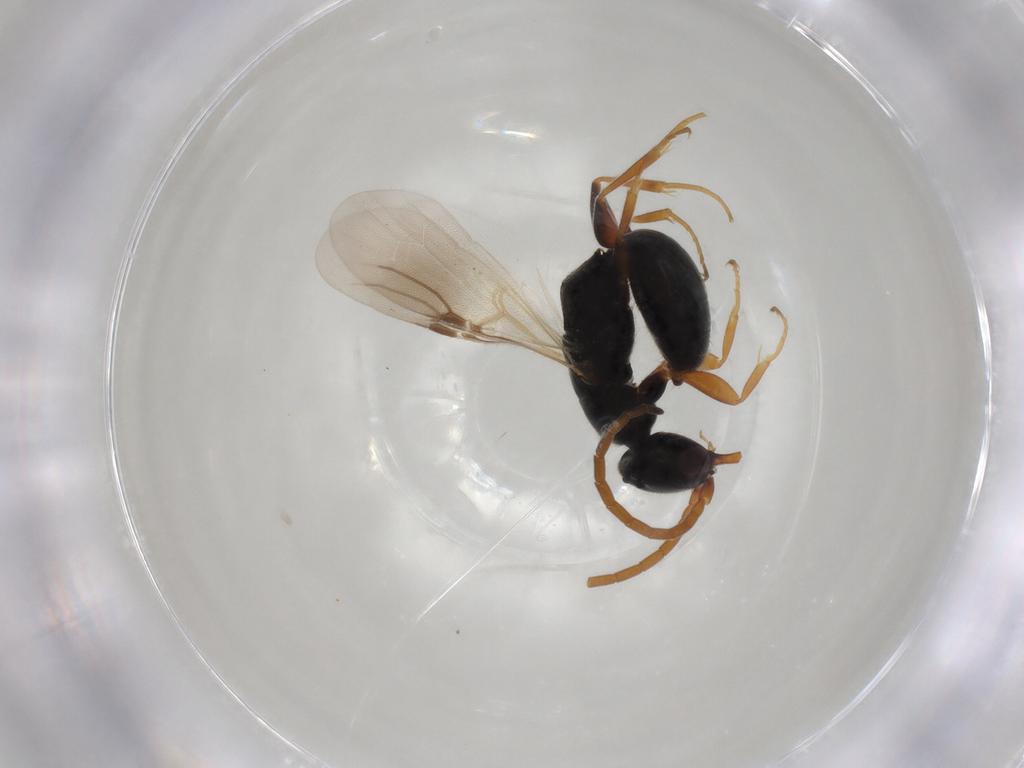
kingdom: Animalia
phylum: Arthropoda
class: Insecta
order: Hymenoptera
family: Bethylidae
